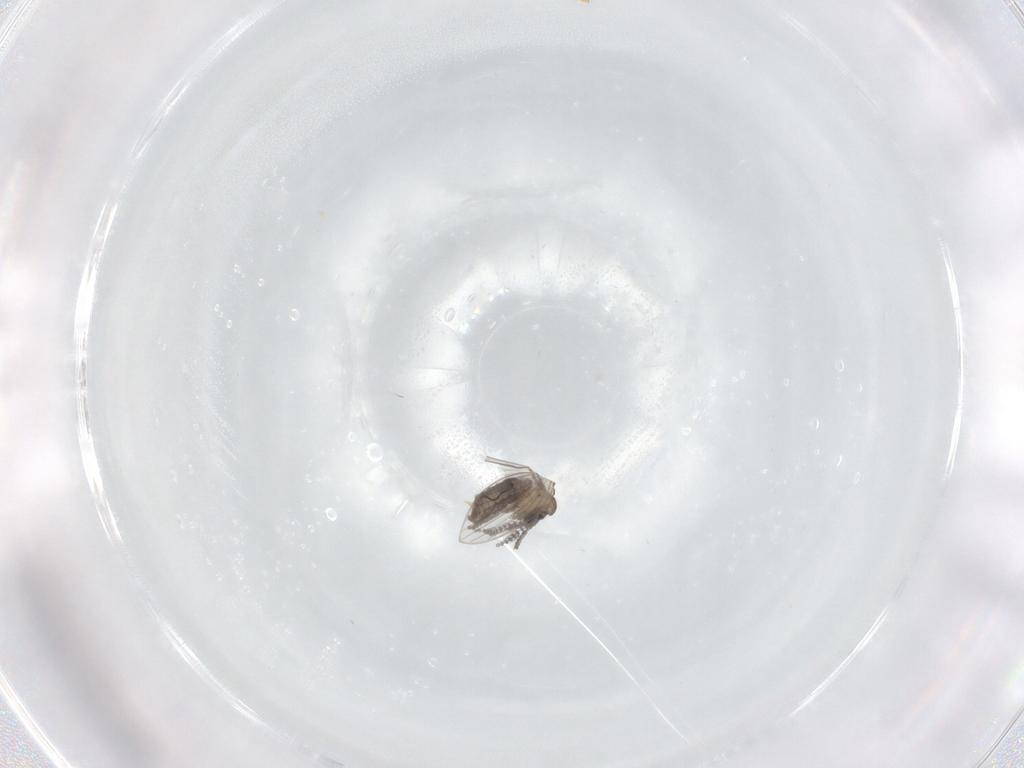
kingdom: Animalia
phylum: Arthropoda
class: Insecta
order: Diptera
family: Psychodidae
